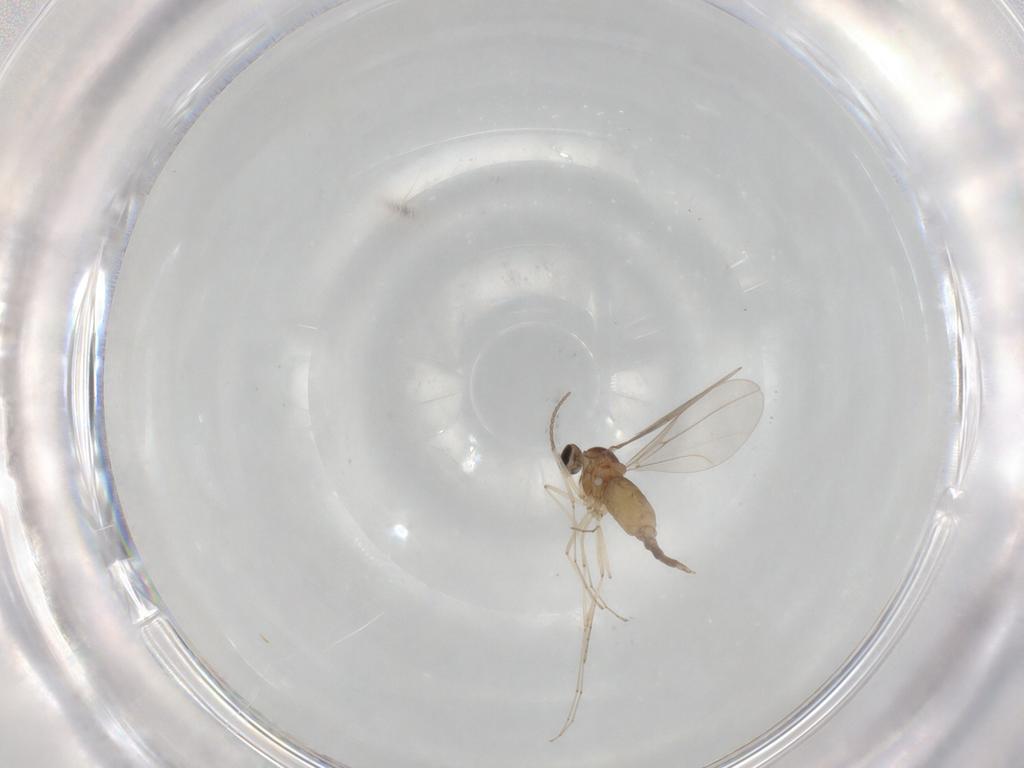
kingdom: Animalia
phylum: Arthropoda
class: Insecta
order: Diptera
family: Cecidomyiidae
